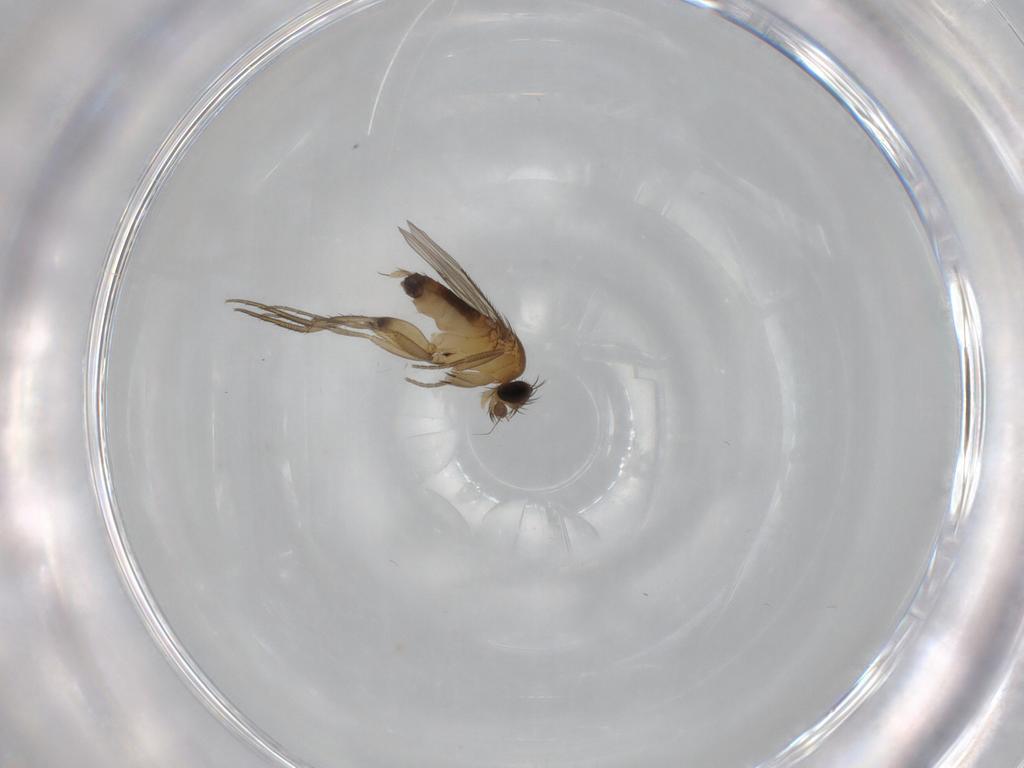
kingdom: Animalia
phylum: Arthropoda
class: Insecta
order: Diptera
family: Phoridae
